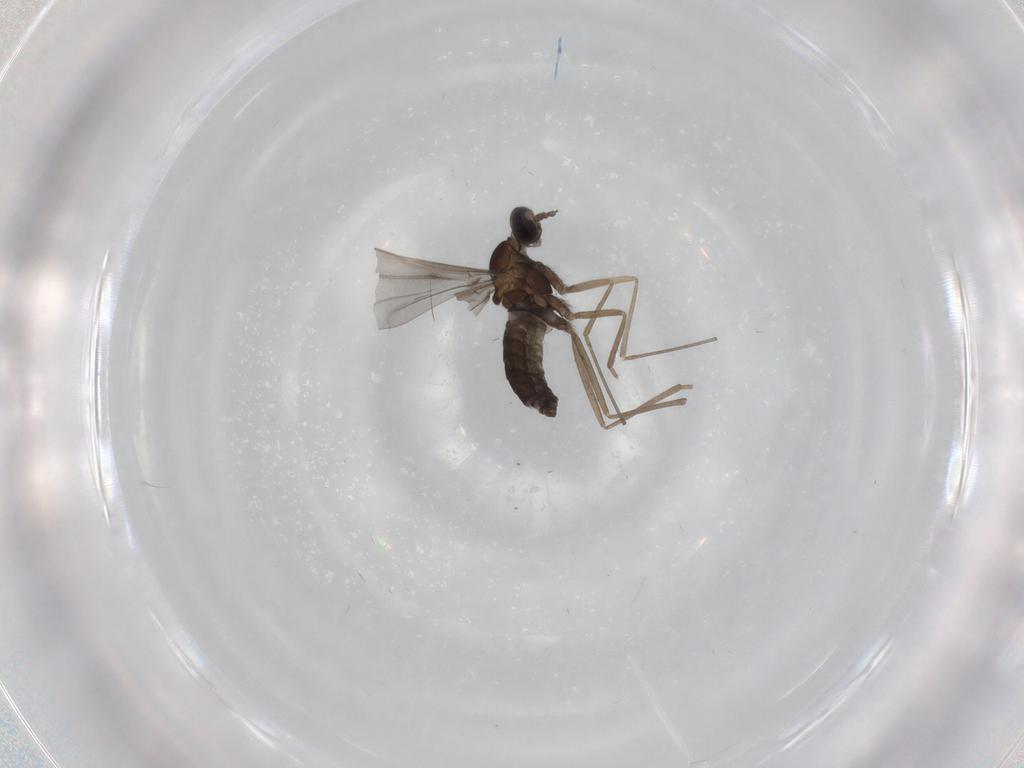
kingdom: Animalia
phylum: Arthropoda
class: Insecta
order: Diptera
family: Cecidomyiidae
